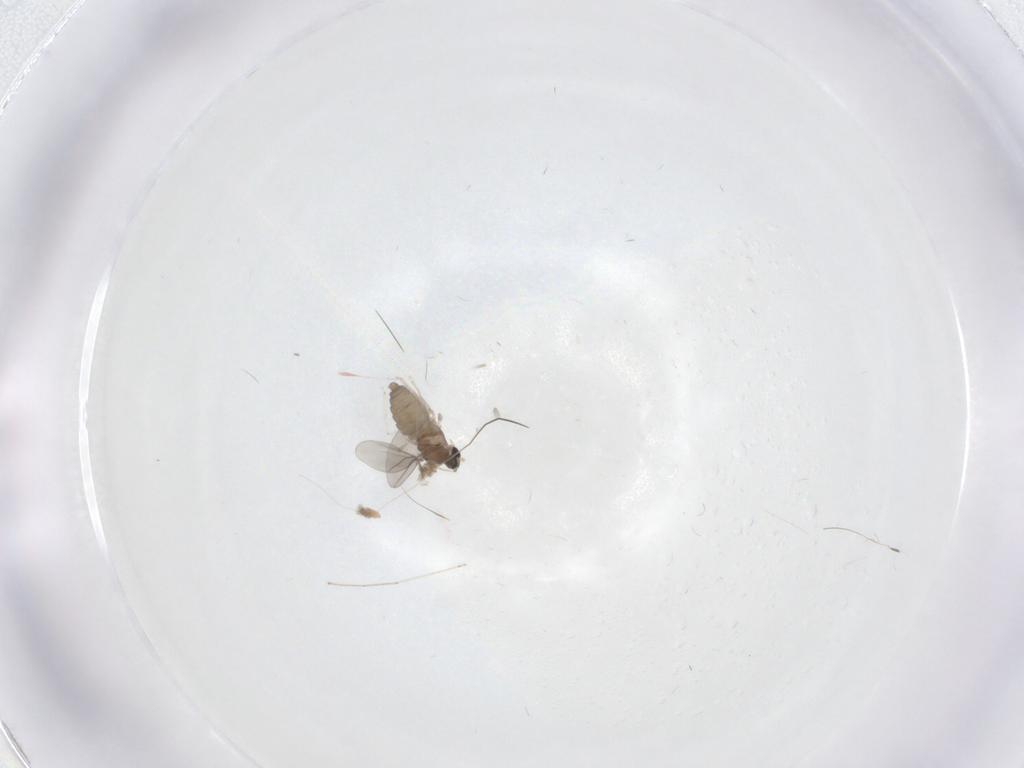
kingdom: Animalia
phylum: Arthropoda
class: Insecta
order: Diptera
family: Cecidomyiidae
